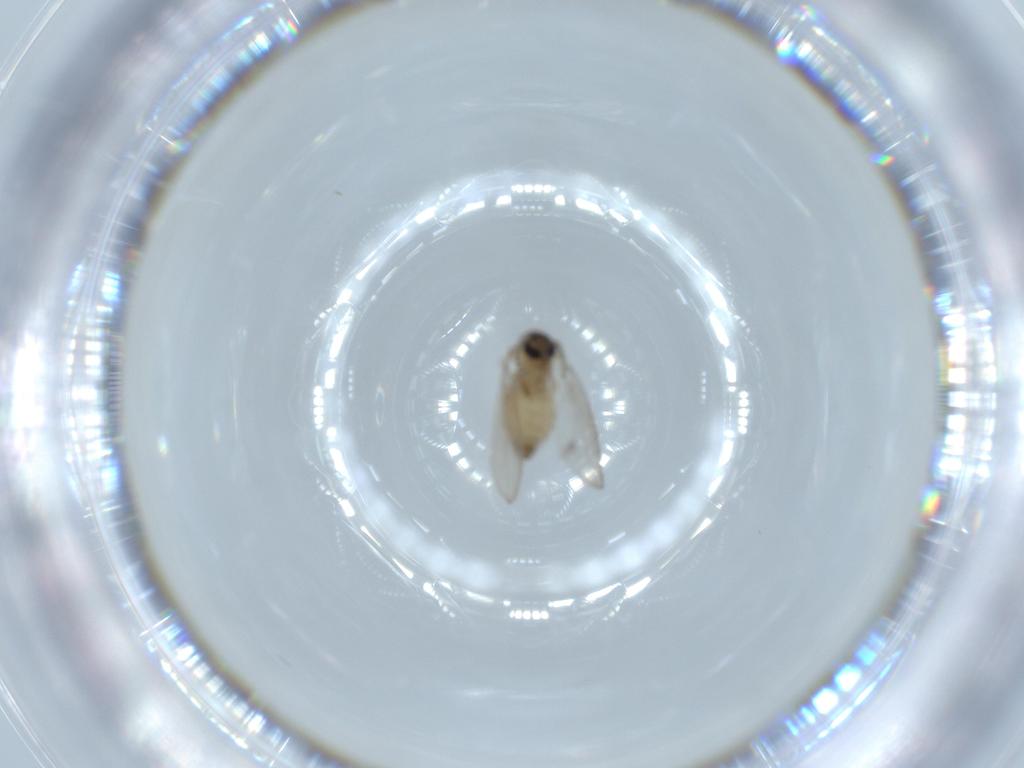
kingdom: Animalia
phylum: Arthropoda
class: Insecta
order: Diptera
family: Psychodidae
